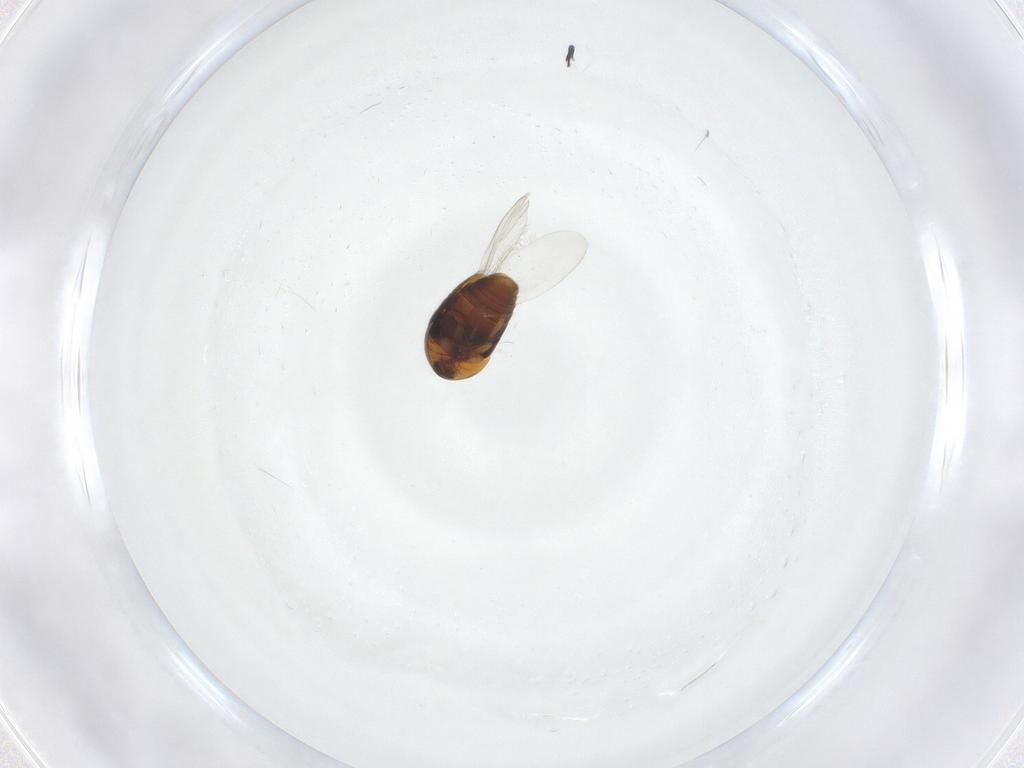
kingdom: Animalia
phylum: Arthropoda
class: Insecta
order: Coleoptera
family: Corylophidae
